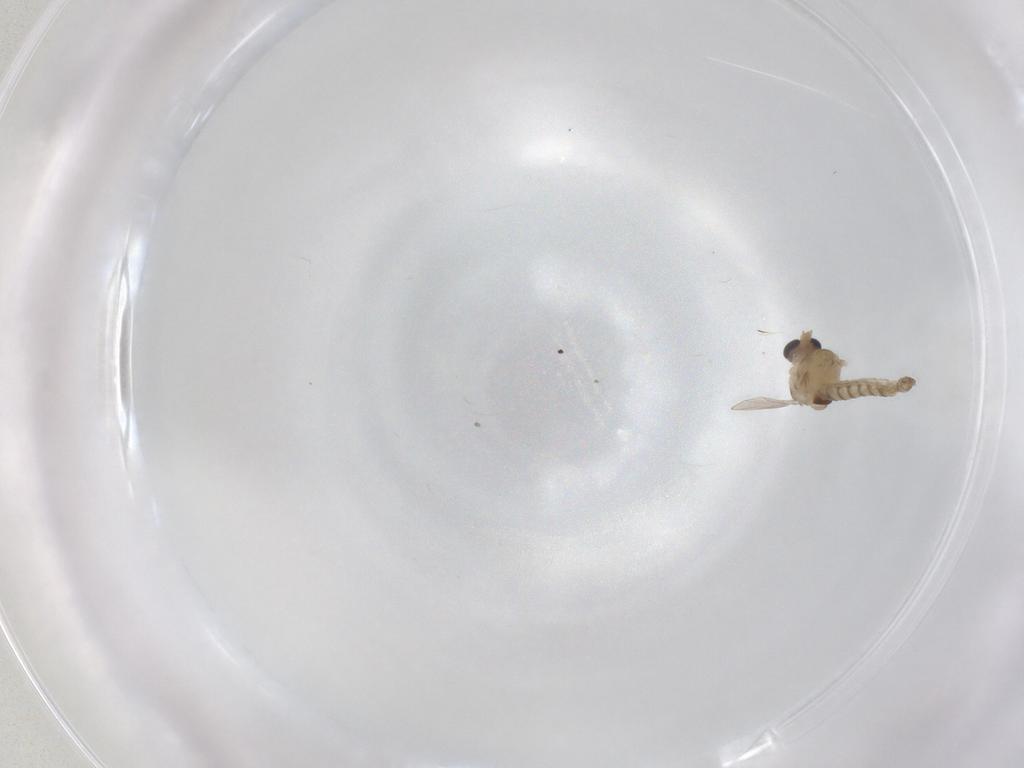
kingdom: Animalia
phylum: Arthropoda
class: Insecta
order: Diptera
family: Chironomidae
